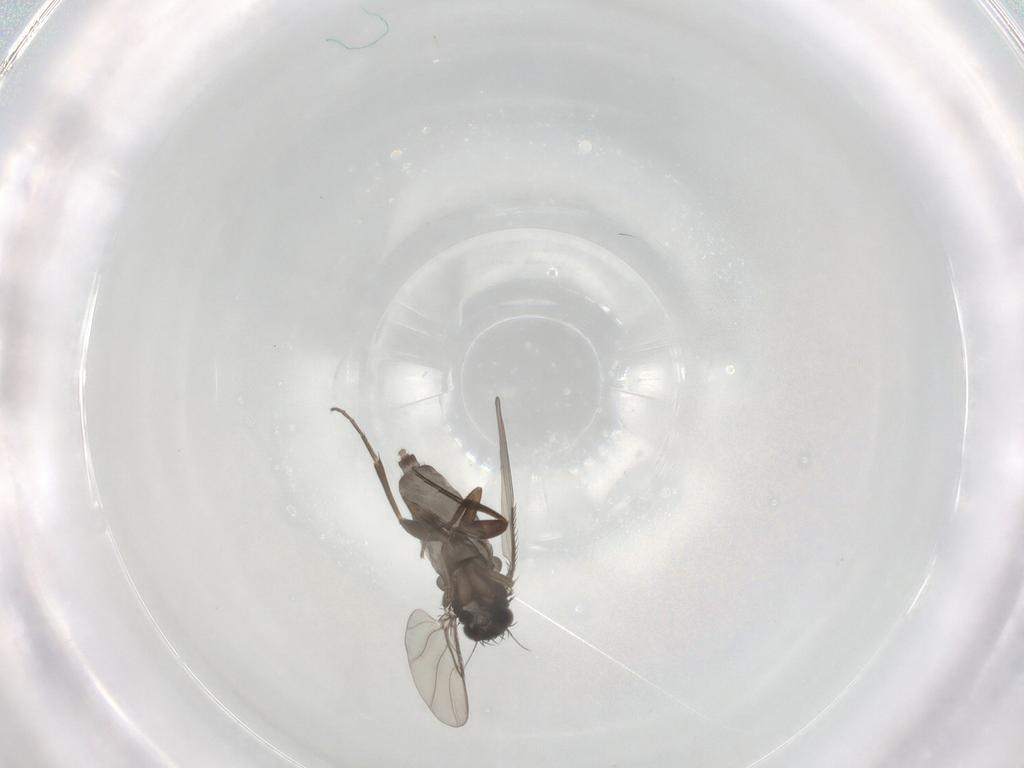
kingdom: Animalia
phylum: Arthropoda
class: Insecta
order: Diptera
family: Phoridae
